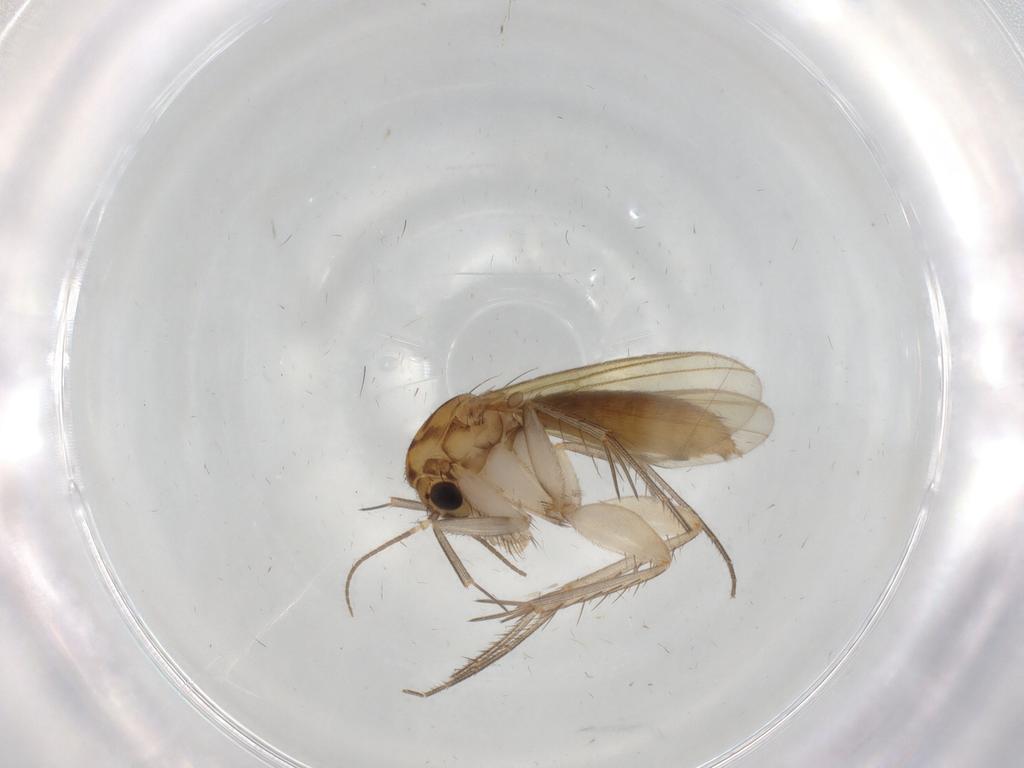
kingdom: Animalia
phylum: Arthropoda
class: Insecta
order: Diptera
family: Mycetophilidae
